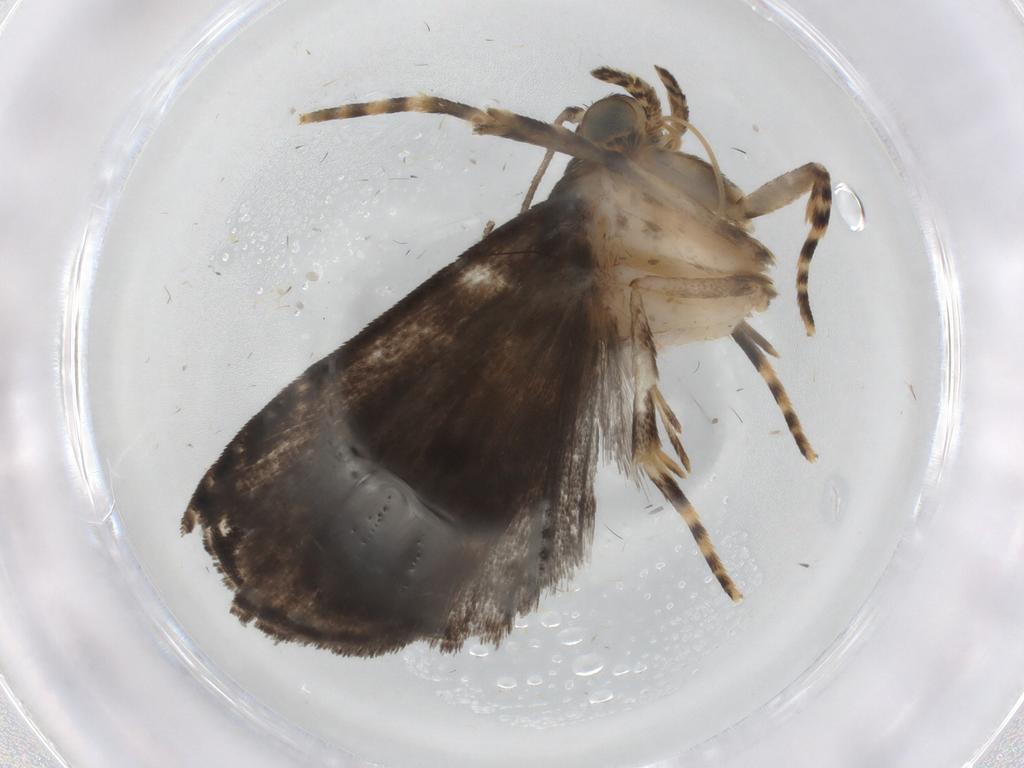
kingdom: Animalia
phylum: Arthropoda
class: Insecta
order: Lepidoptera
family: Immidae
